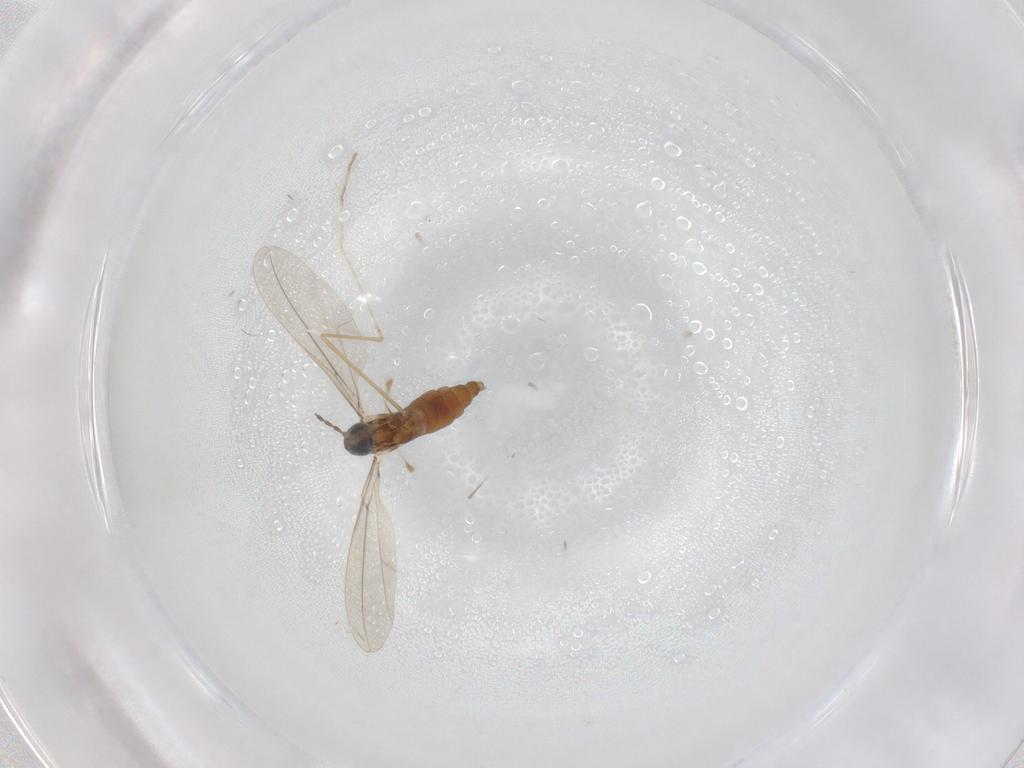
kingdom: Animalia
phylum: Arthropoda
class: Insecta
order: Diptera
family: Cecidomyiidae
